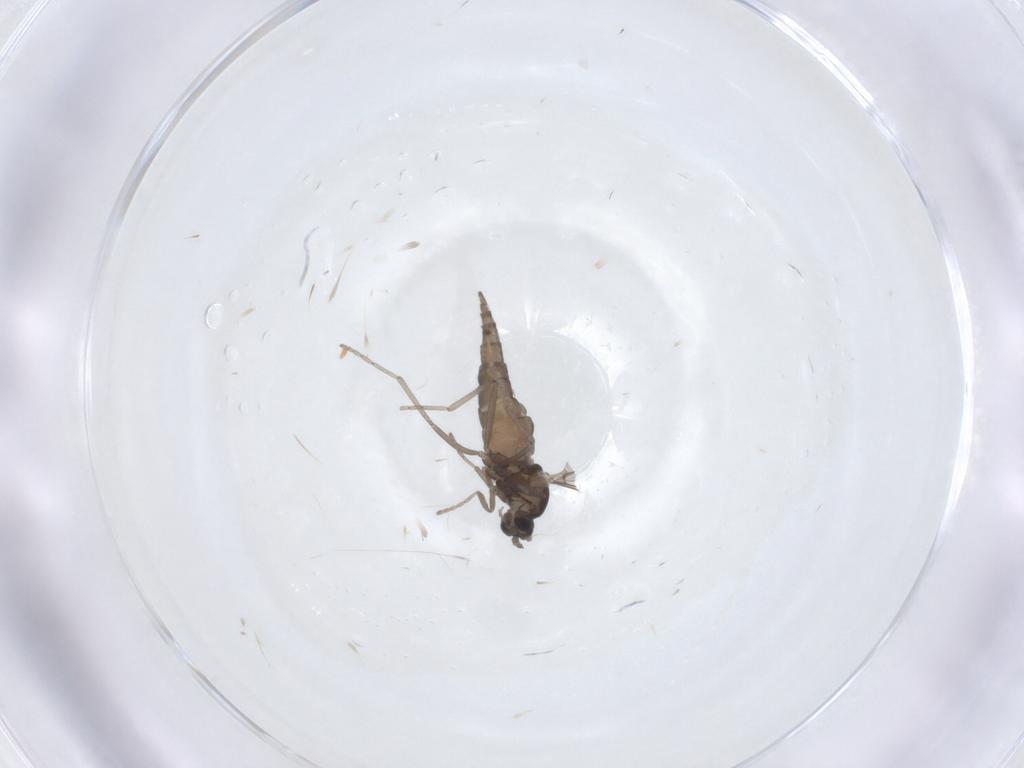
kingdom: Animalia
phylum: Arthropoda
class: Insecta
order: Diptera
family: Cecidomyiidae
